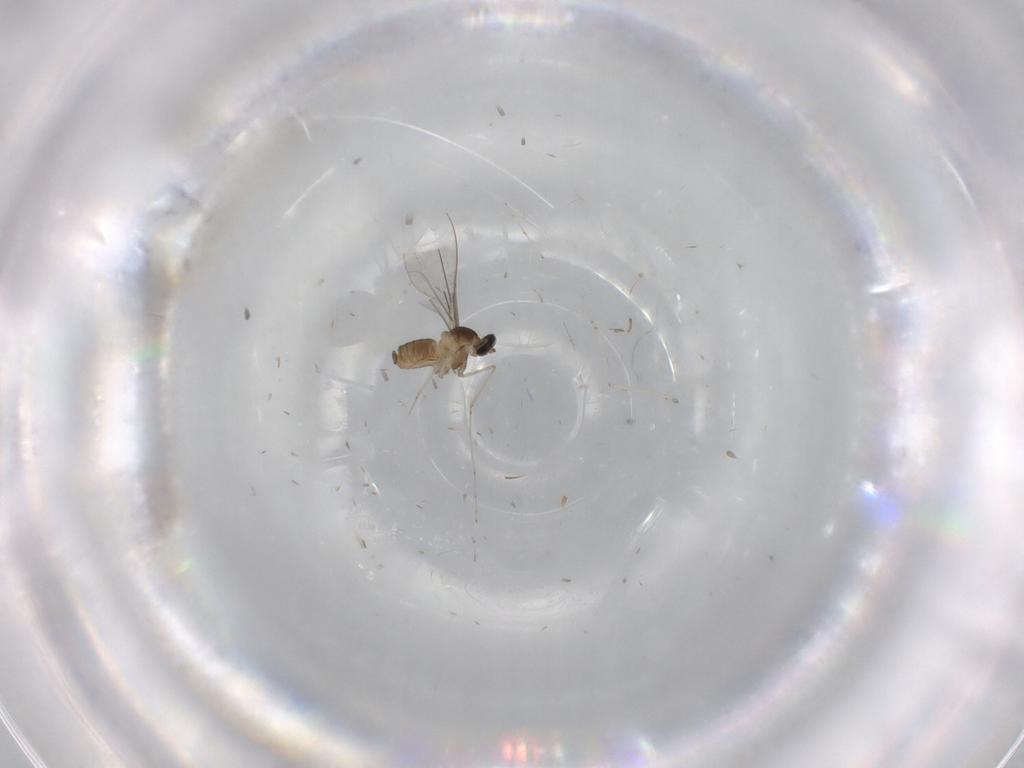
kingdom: Animalia
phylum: Arthropoda
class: Insecta
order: Diptera
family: Cecidomyiidae
